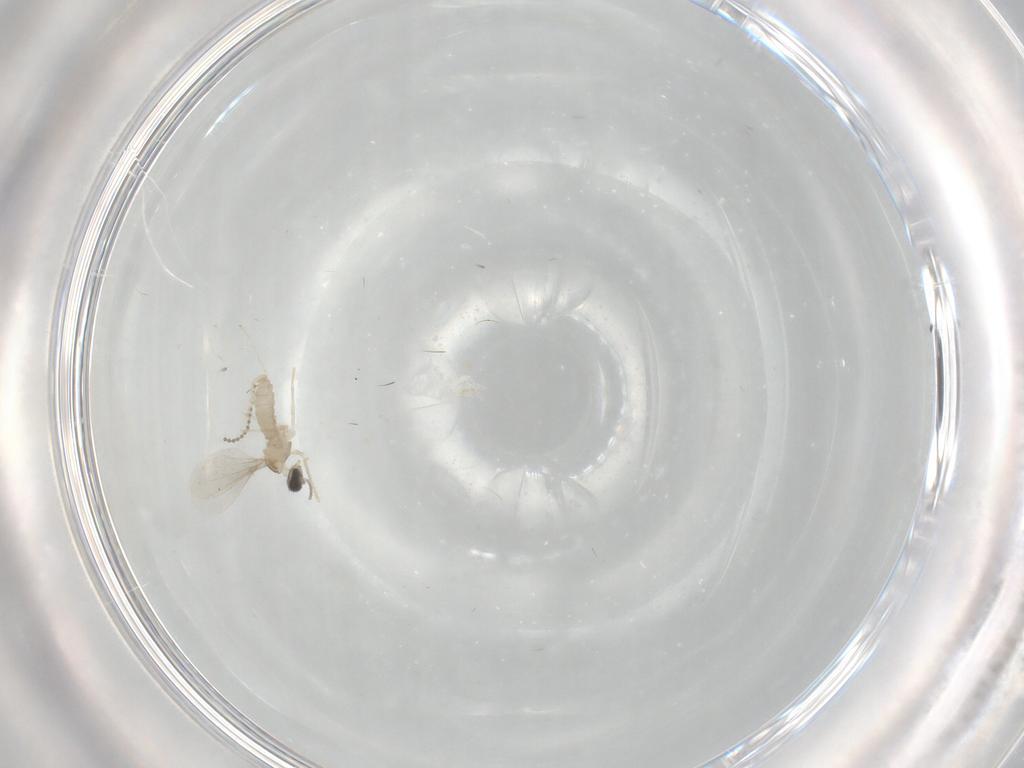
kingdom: Animalia
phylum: Arthropoda
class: Insecta
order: Diptera
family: Cecidomyiidae
